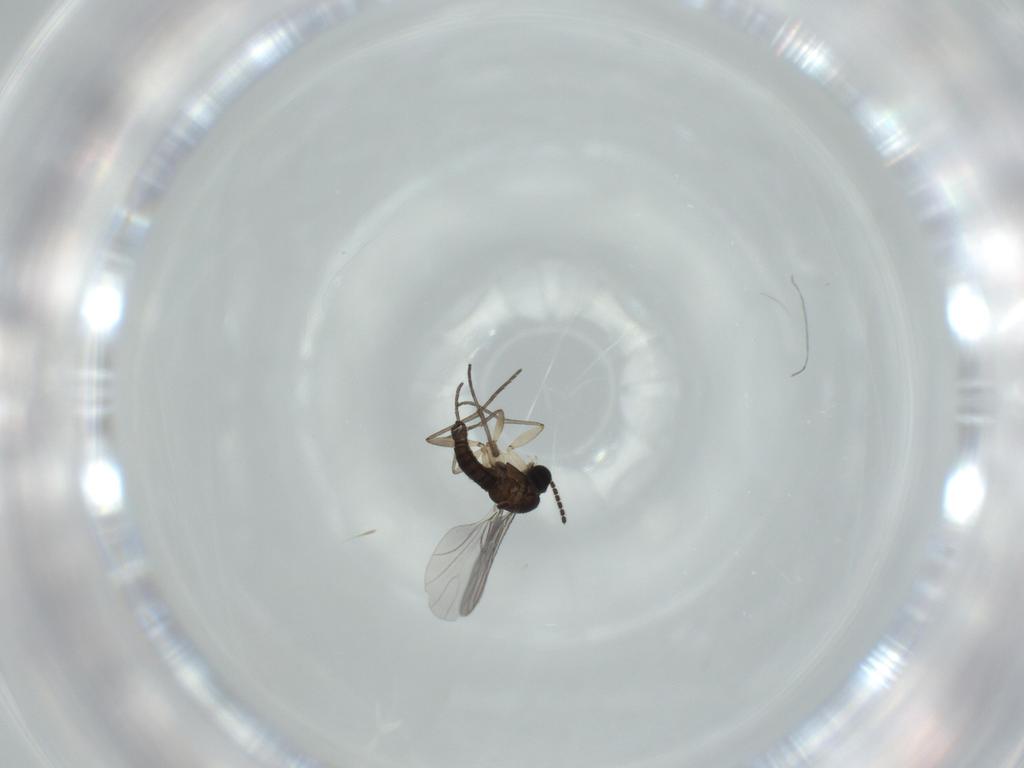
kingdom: Animalia
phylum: Arthropoda
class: Insecta
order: Diptera
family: Sciaridae
